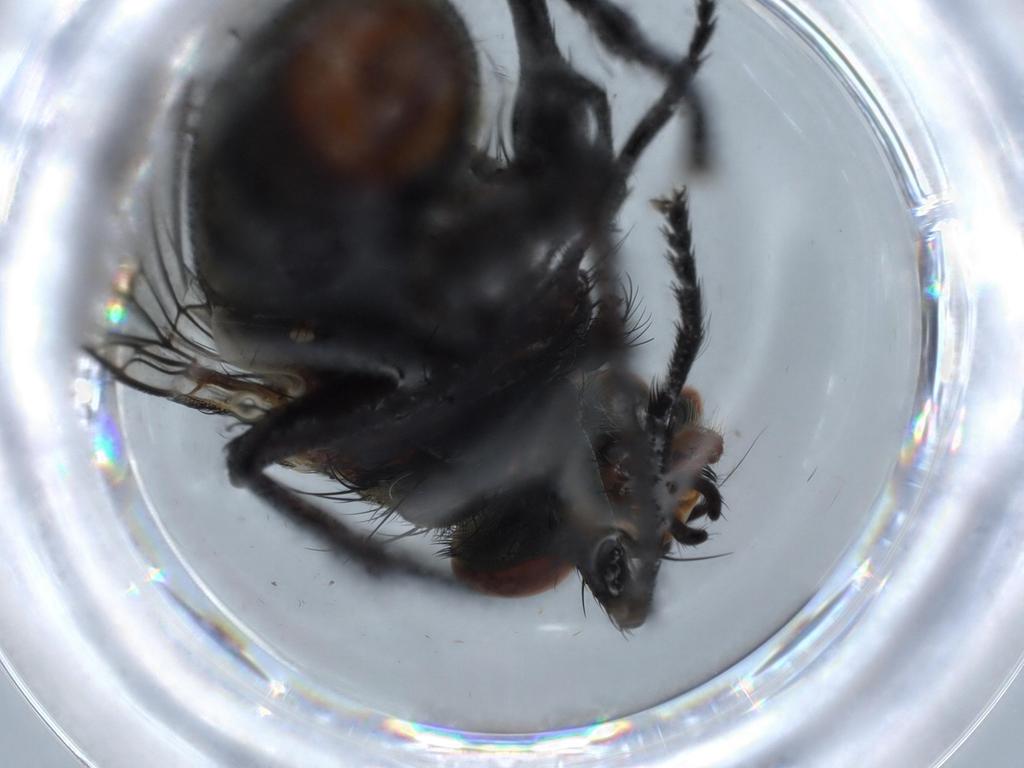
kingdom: Animalia
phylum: Arthropoda
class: Insecta
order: Diptera
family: Anthomyiidae
